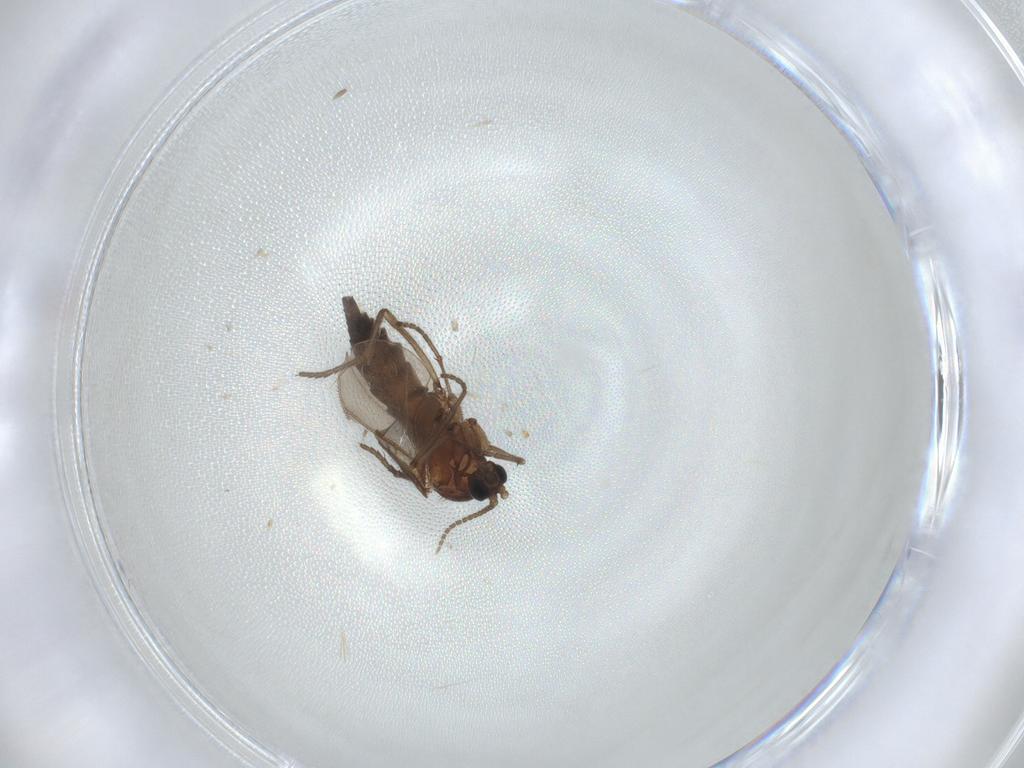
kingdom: Animalia
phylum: Arthropoda
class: Insecta
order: Diptera
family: Sciaridae
